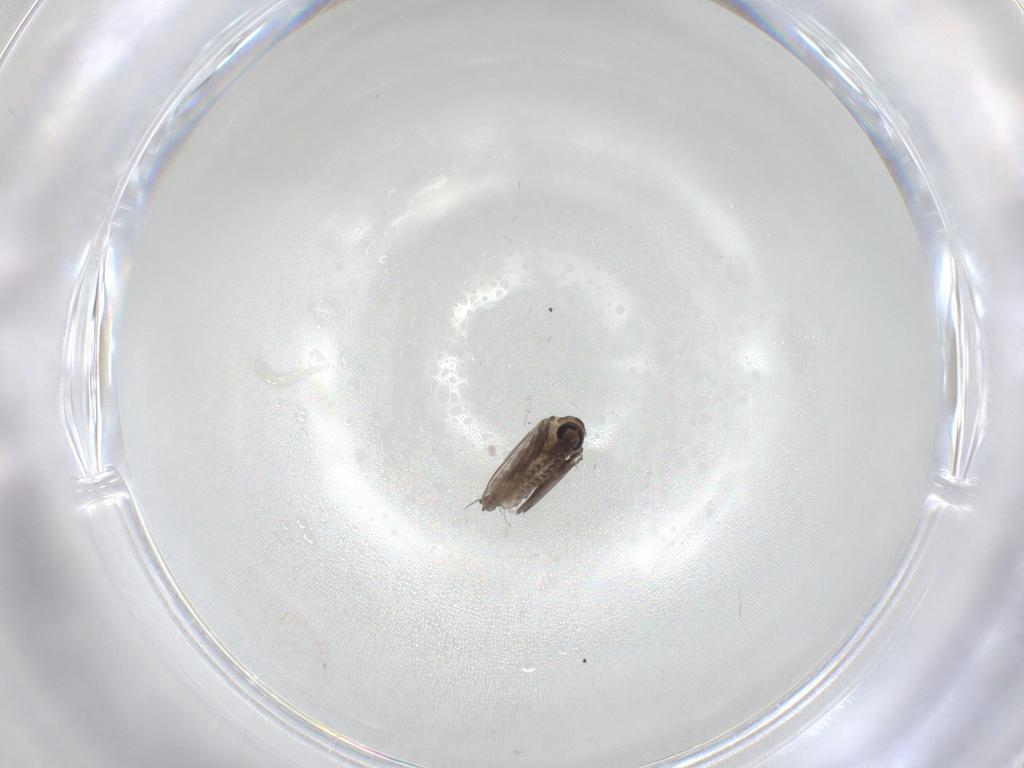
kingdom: Animalia
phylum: Arthropoda
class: Insecta
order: Diptera
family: Psychodidae
